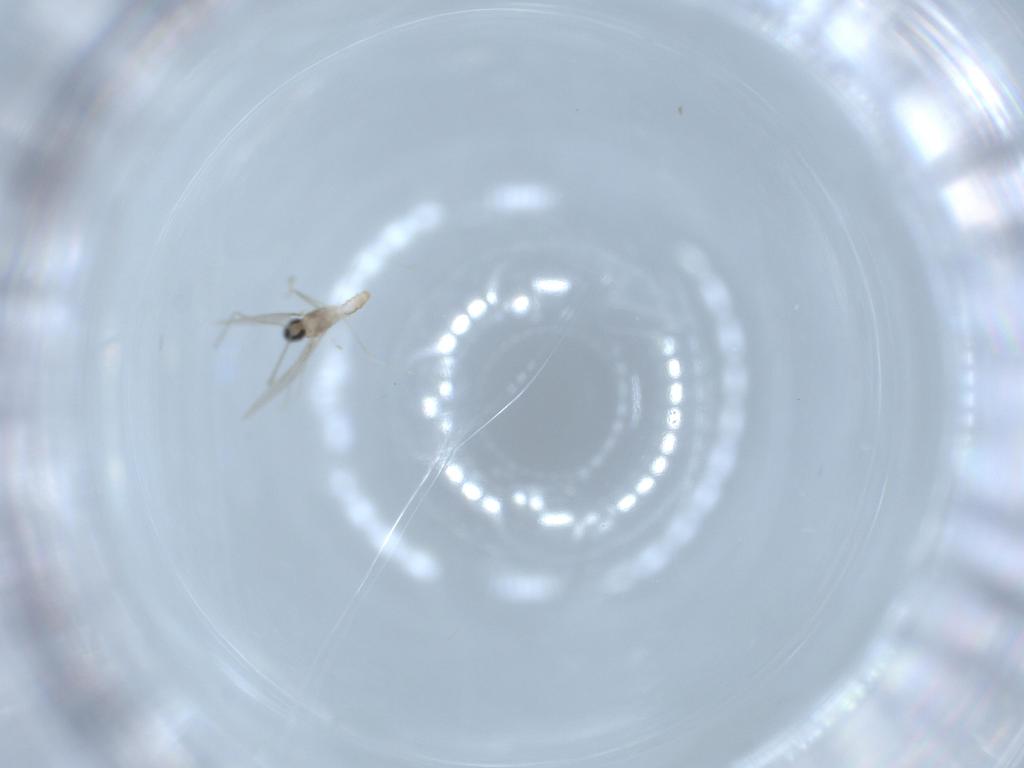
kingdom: Animalia
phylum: Arthropoda
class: Insecta
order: Diptera
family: Cecidomyiidae
